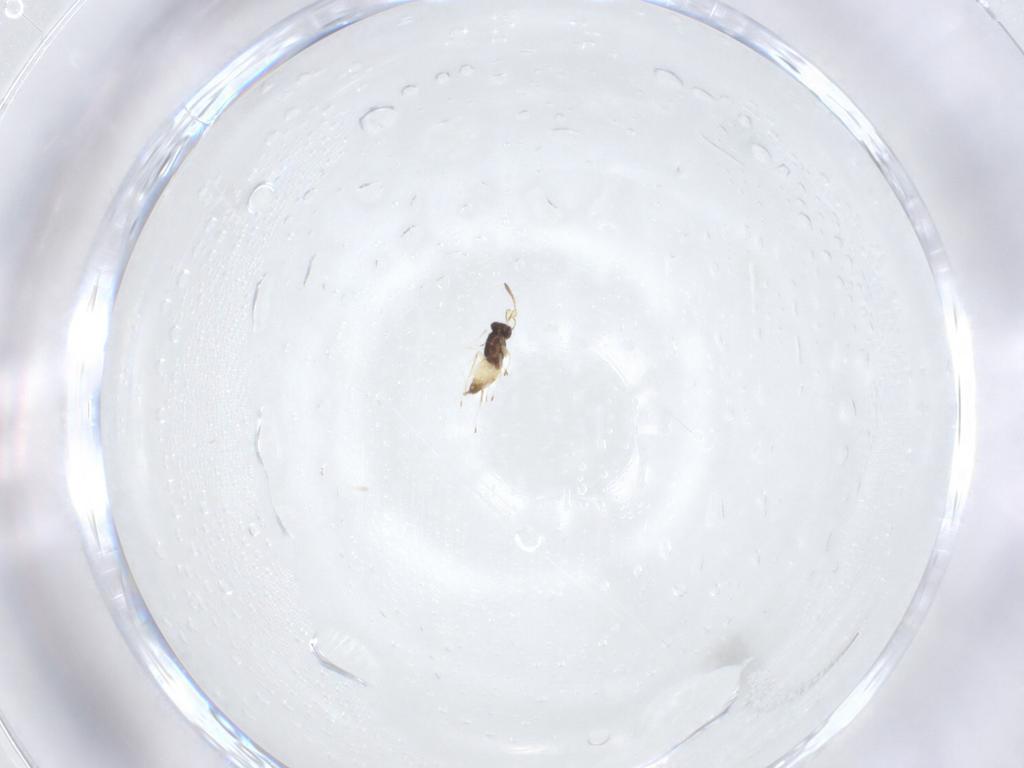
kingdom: Animalia
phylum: Arthropoda
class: Insecta
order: Hymenoptera
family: Mymaridae
